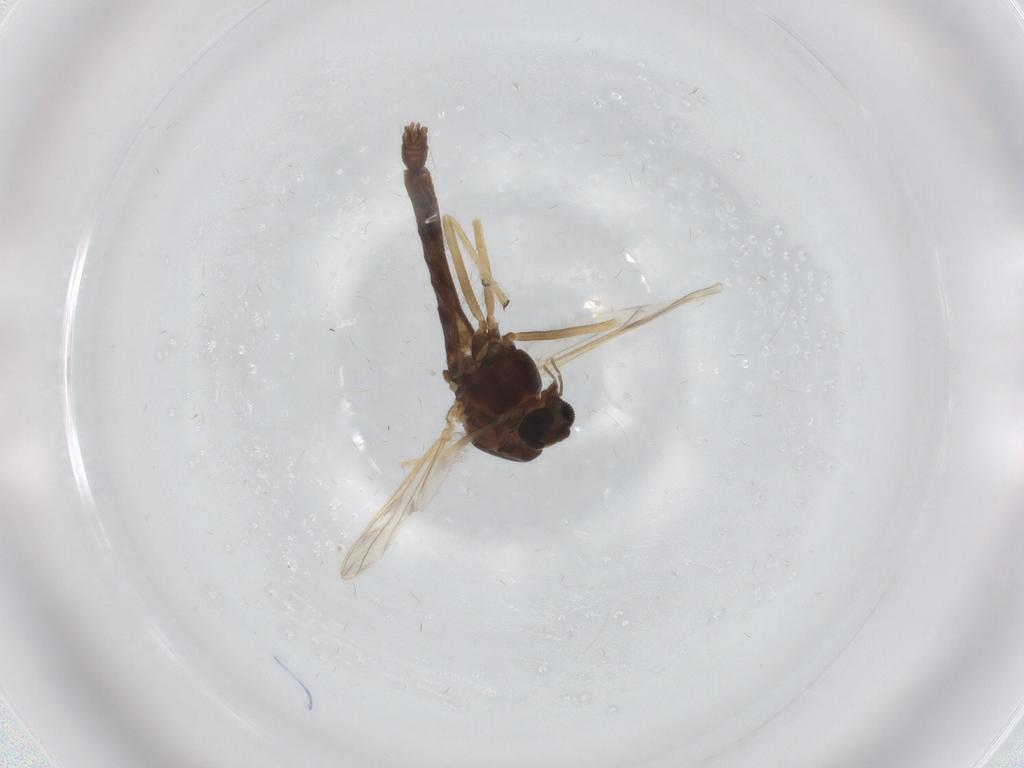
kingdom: Animalia
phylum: Arthropoda
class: Insecta
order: Diptera
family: Chironomidae
